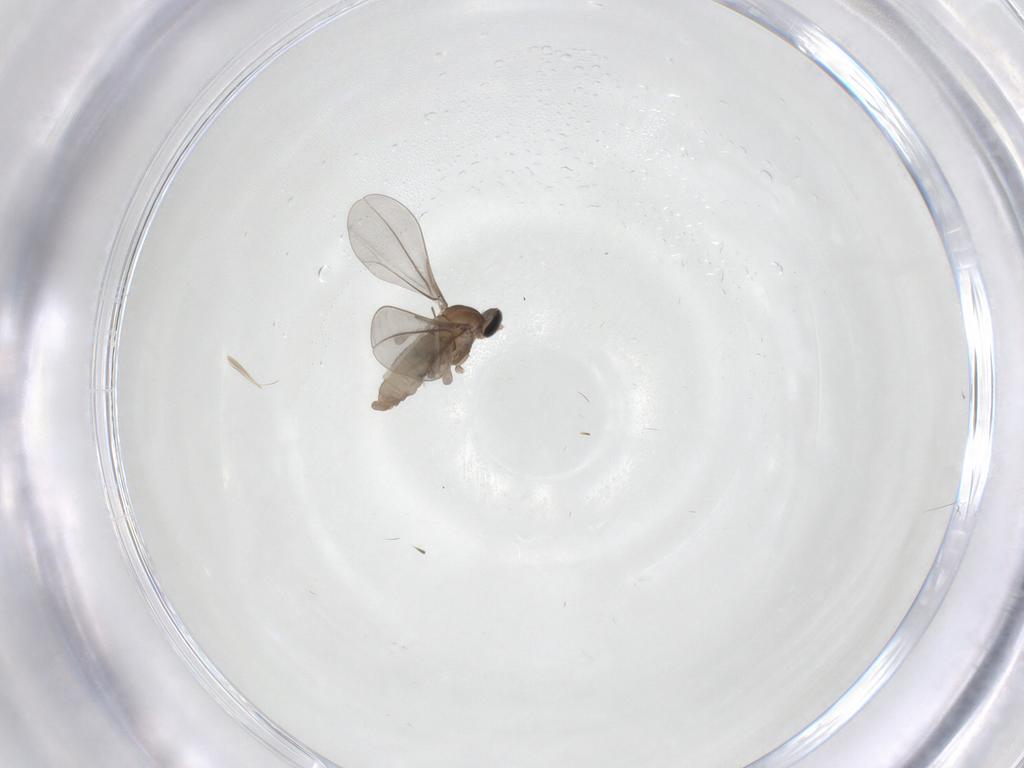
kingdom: Animalia
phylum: Arthropoda
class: Insecta
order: Diptera
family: Cecidomyiidae
